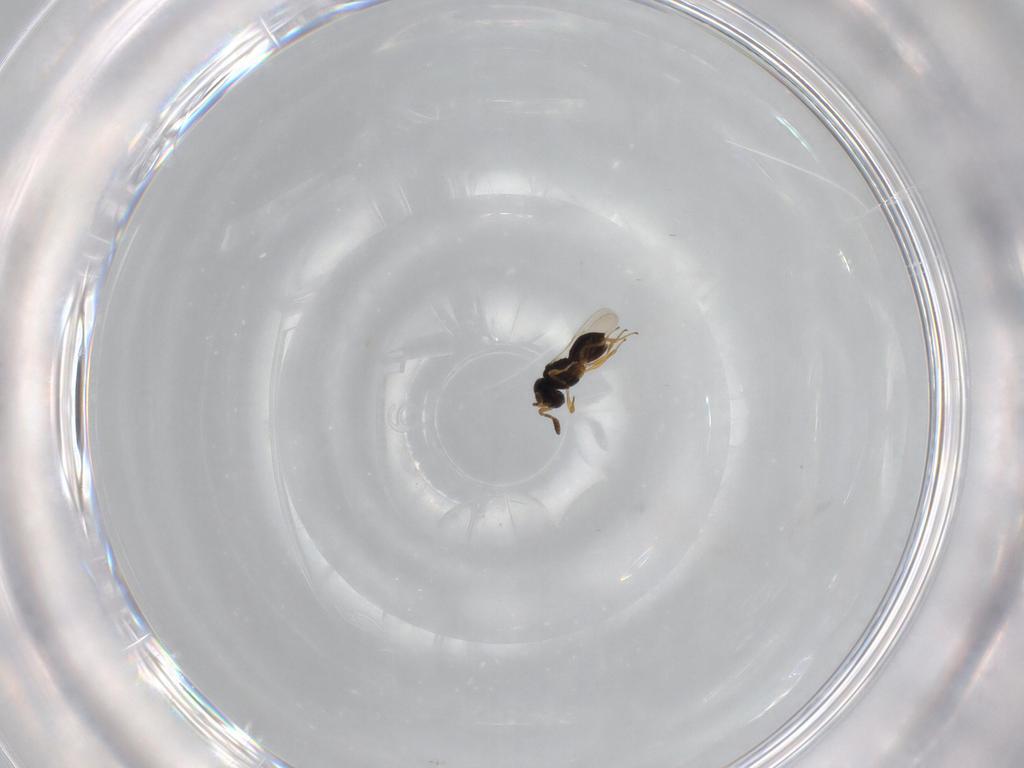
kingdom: Animalia
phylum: Arthropoda
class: Insecta
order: Hymenoptera
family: Scelionidae
